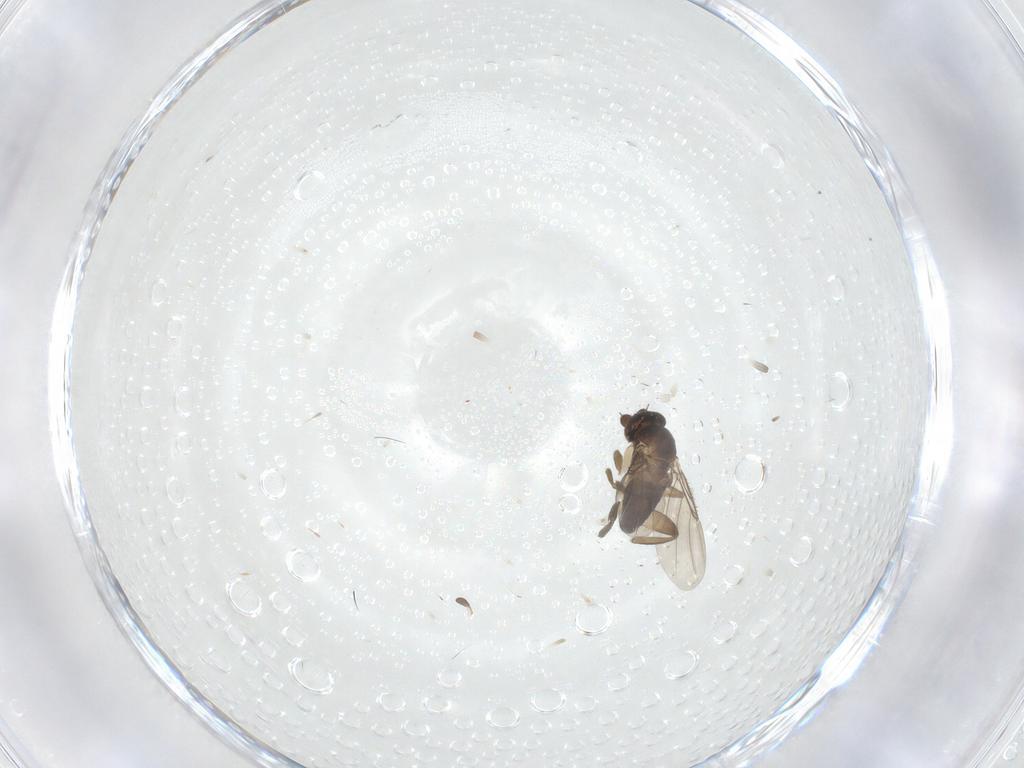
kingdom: Animalia
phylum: Arthropoda
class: Insecta
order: Diptera
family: Phoridae
